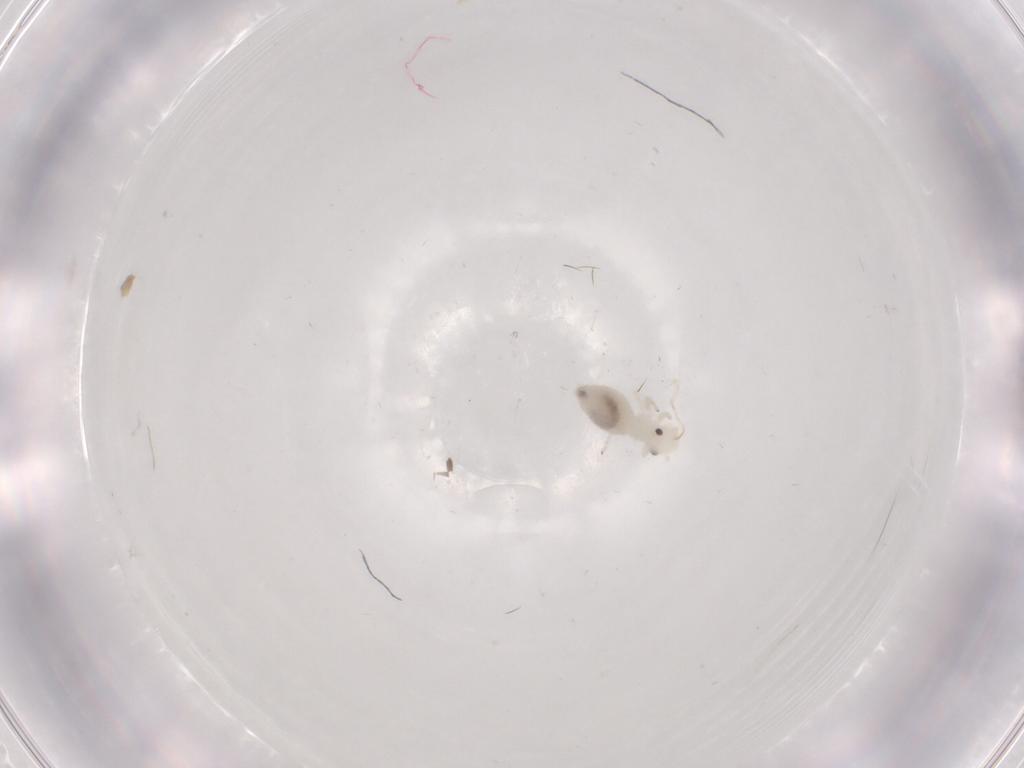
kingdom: Animalia
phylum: Arthropoda
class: Insecta
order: Psocodea
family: Caeciliusidae
